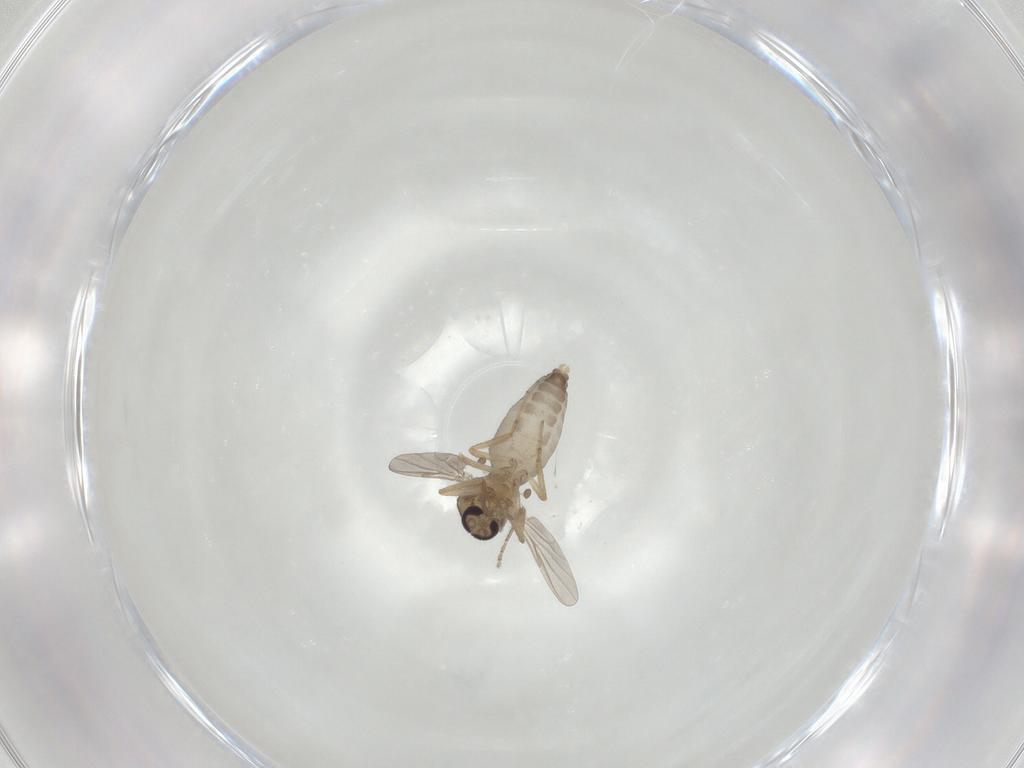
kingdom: Animalia
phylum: Arthropoda
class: Insecta
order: Diptera
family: Ceratopogonidae
